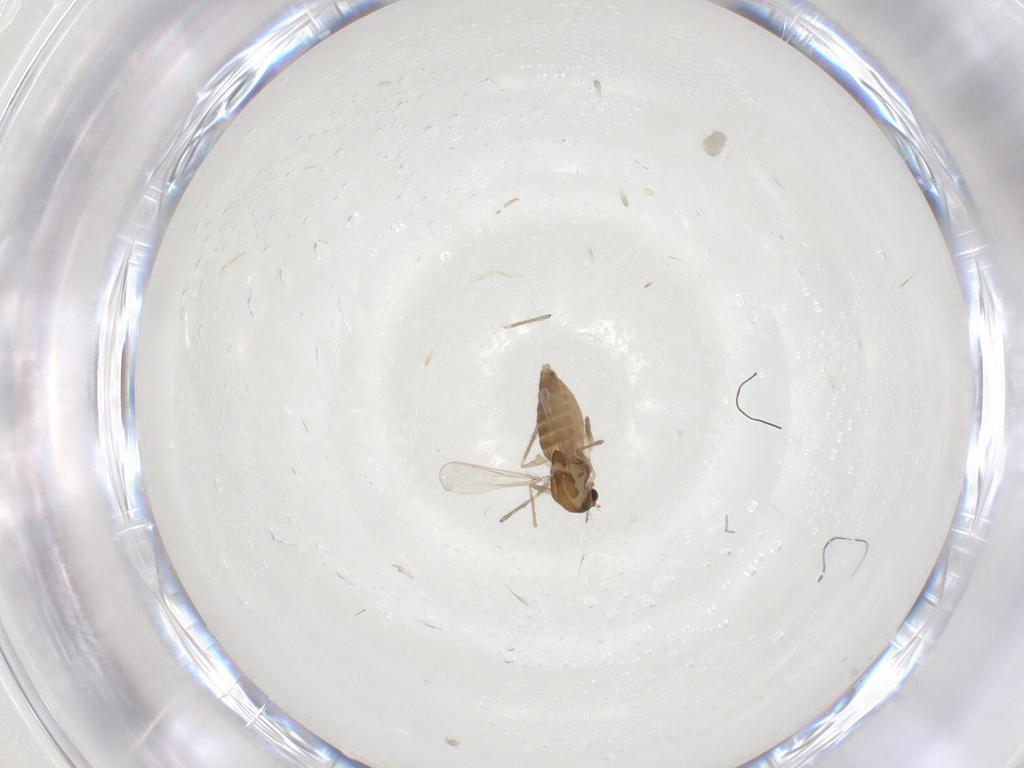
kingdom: Animalia
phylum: Arthropoda
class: Insecta
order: Diptera
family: Chironomidae
